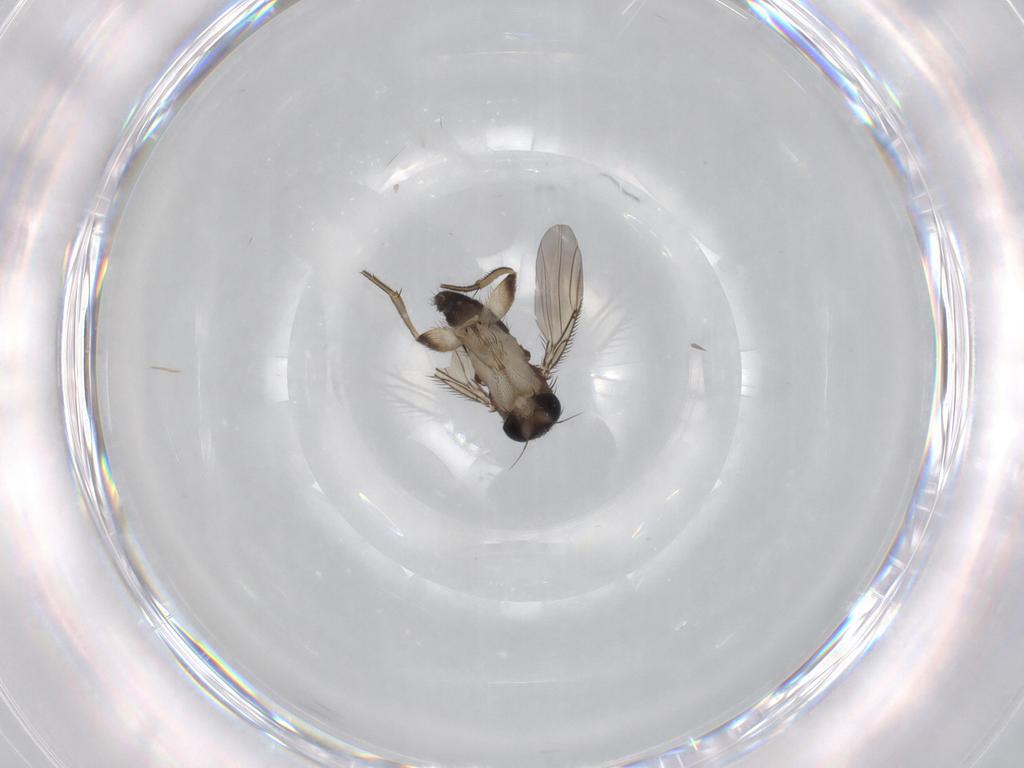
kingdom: Animalia
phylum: Arthropoda
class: Insecta
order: Diptera
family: Phoridae
